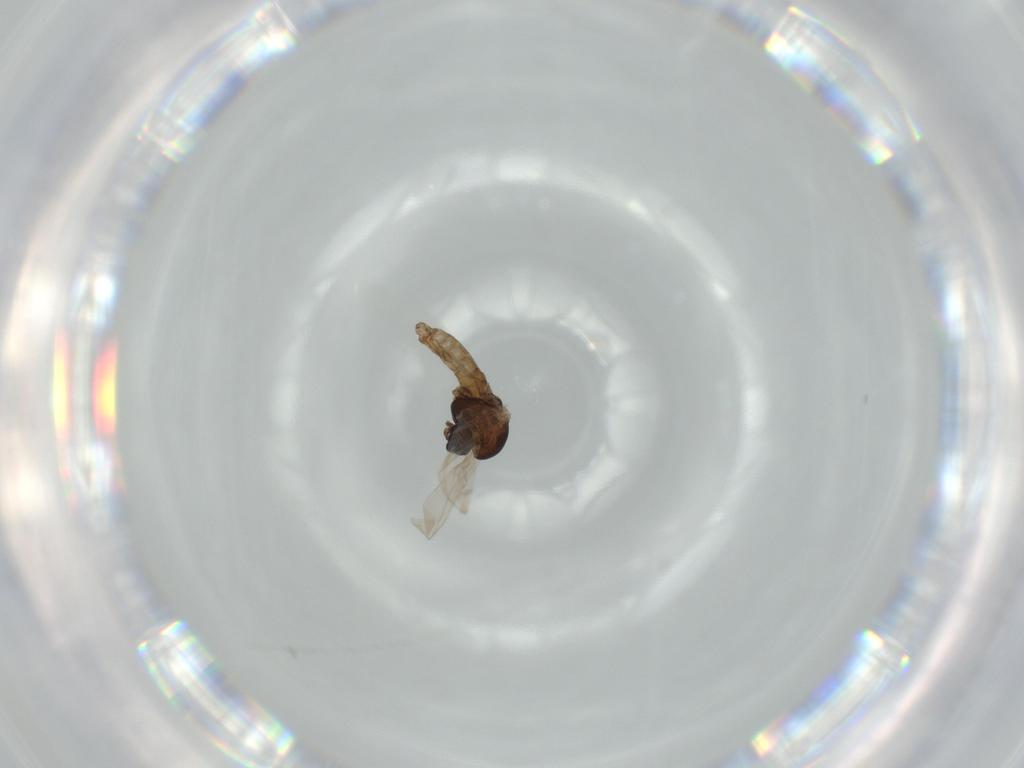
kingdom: Animalia
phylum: Arthropoda
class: Insecta
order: Diptera
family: Chironomidae
